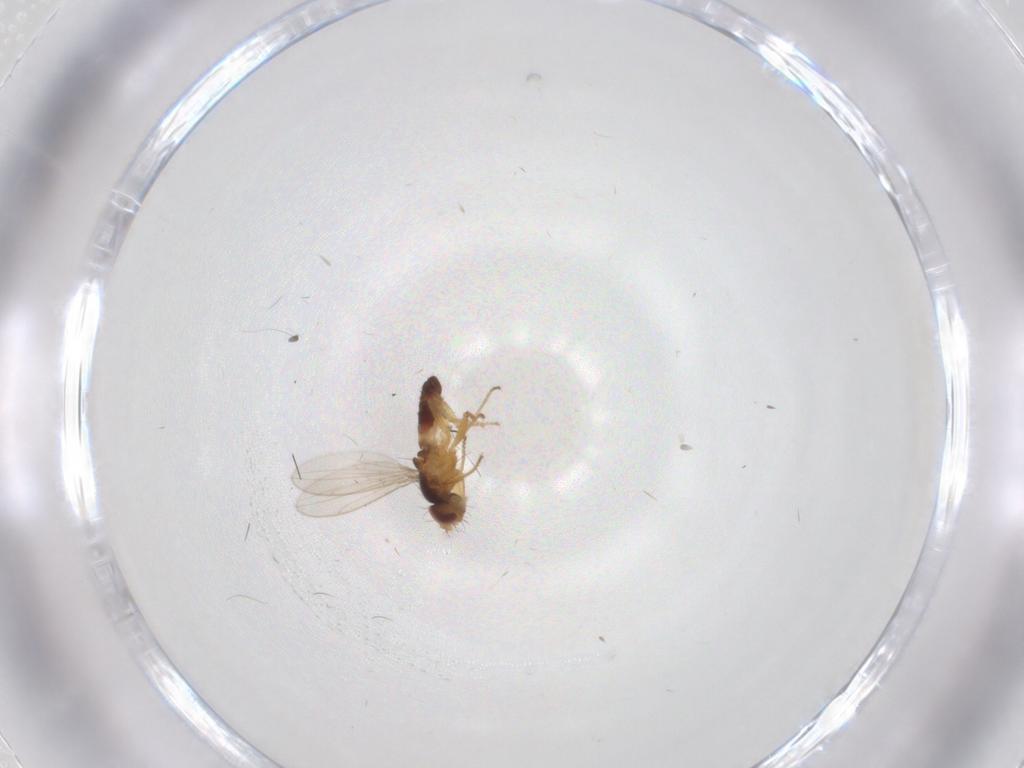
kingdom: Animalia
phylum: Arthropoda
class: Insecta
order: Diptera
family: Periscelididae
